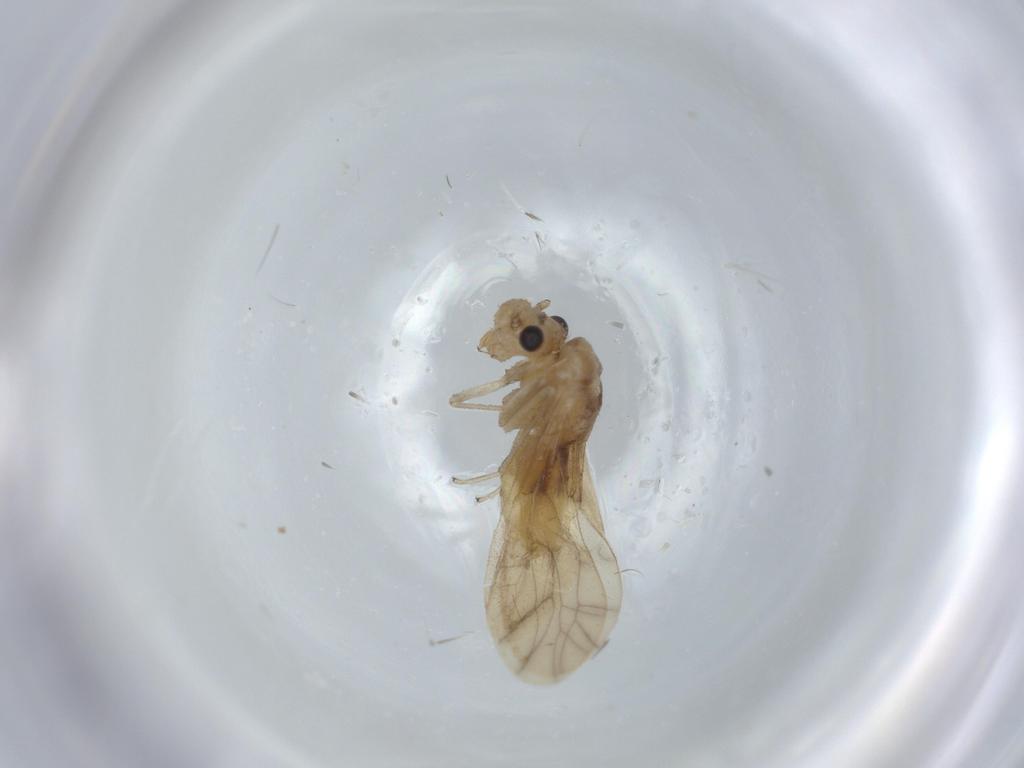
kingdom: Animalia
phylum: Arthropoda
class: Insecta
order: Psocodea
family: Caeciliusidae
